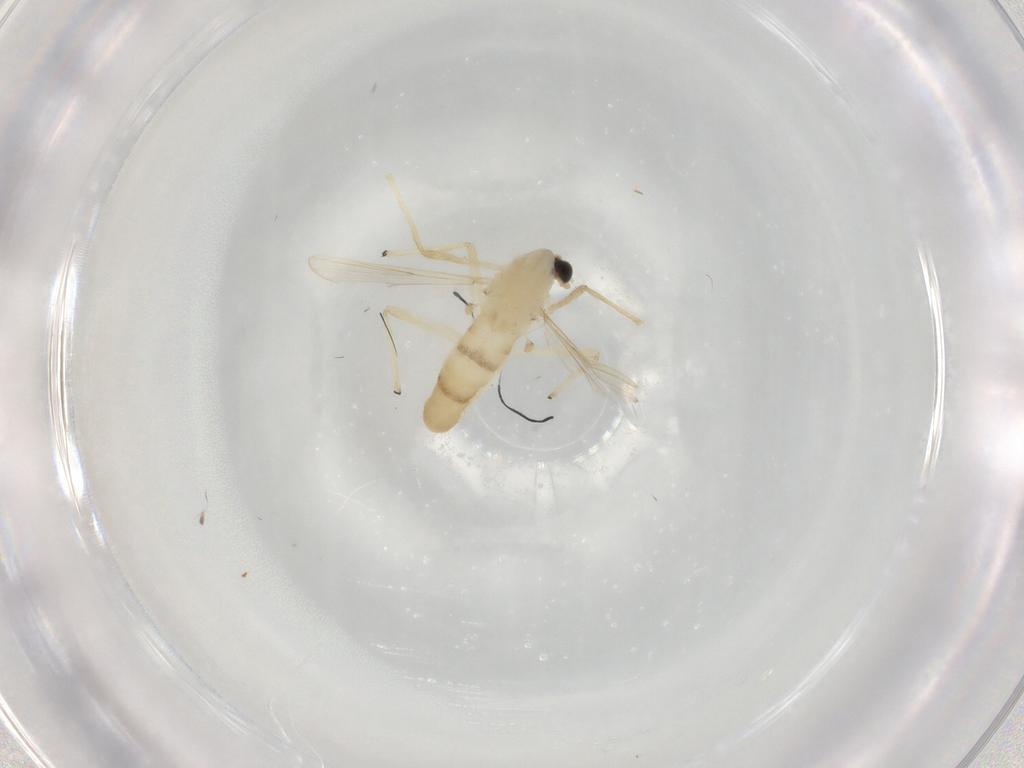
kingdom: Animalia
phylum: Arthropoda
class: Insecta
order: Diptera
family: Chironomidae
